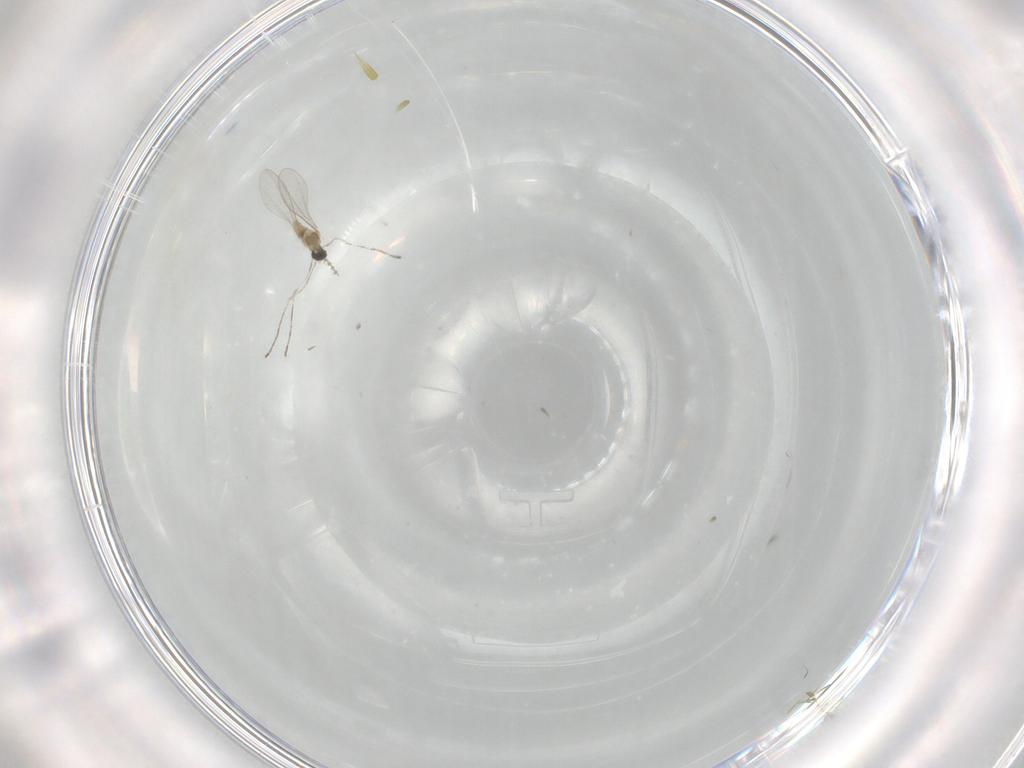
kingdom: Animalia
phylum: Arthropoda
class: Insecta
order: Diptera
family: Cecidomyiidae
